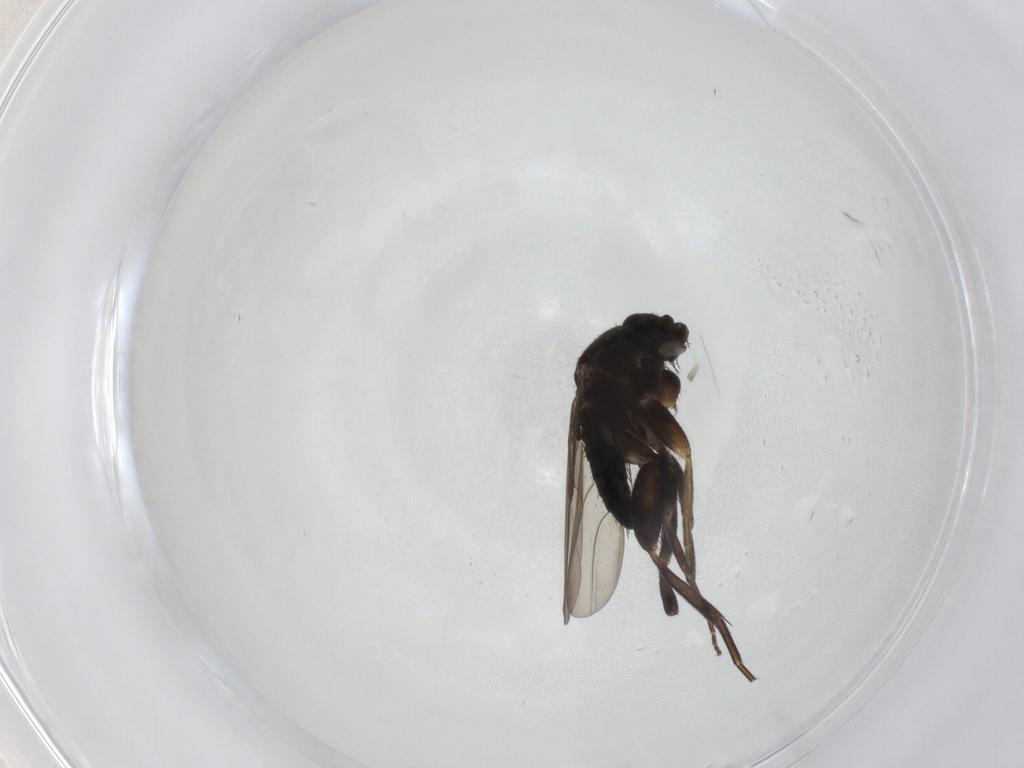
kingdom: Animalia
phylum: Arthropoda
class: Insecta
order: Diptera
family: Phoridae
